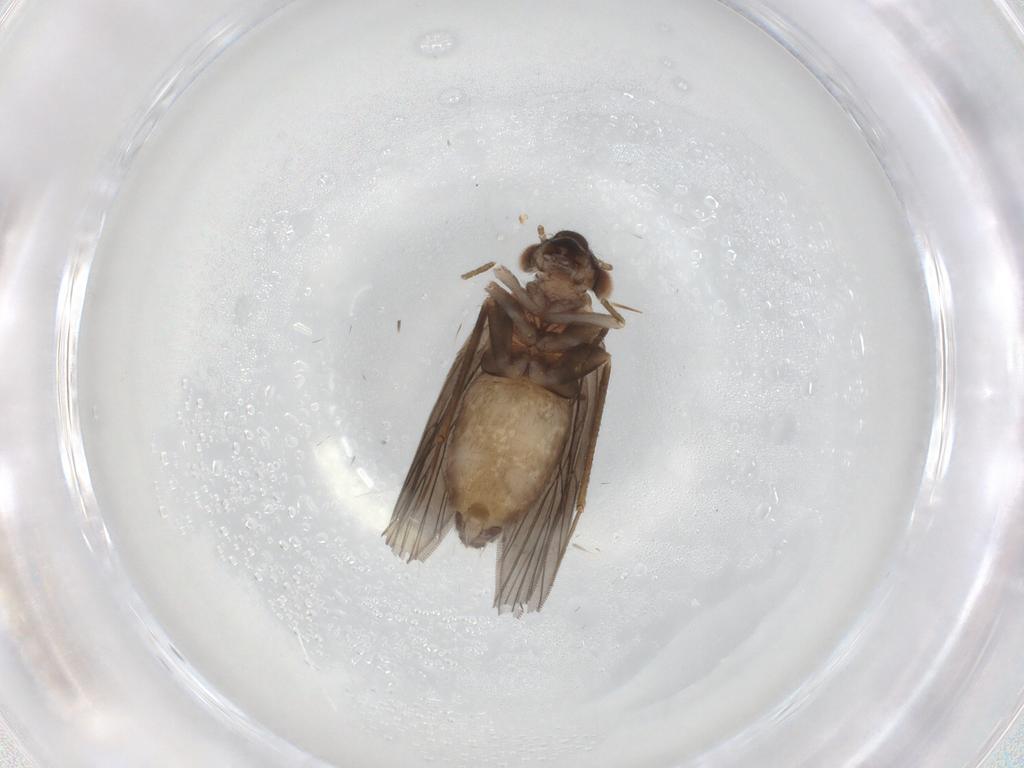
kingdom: Animalia
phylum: Arthropoda
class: Insecta
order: Psocodea
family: Lepidopsocidae
